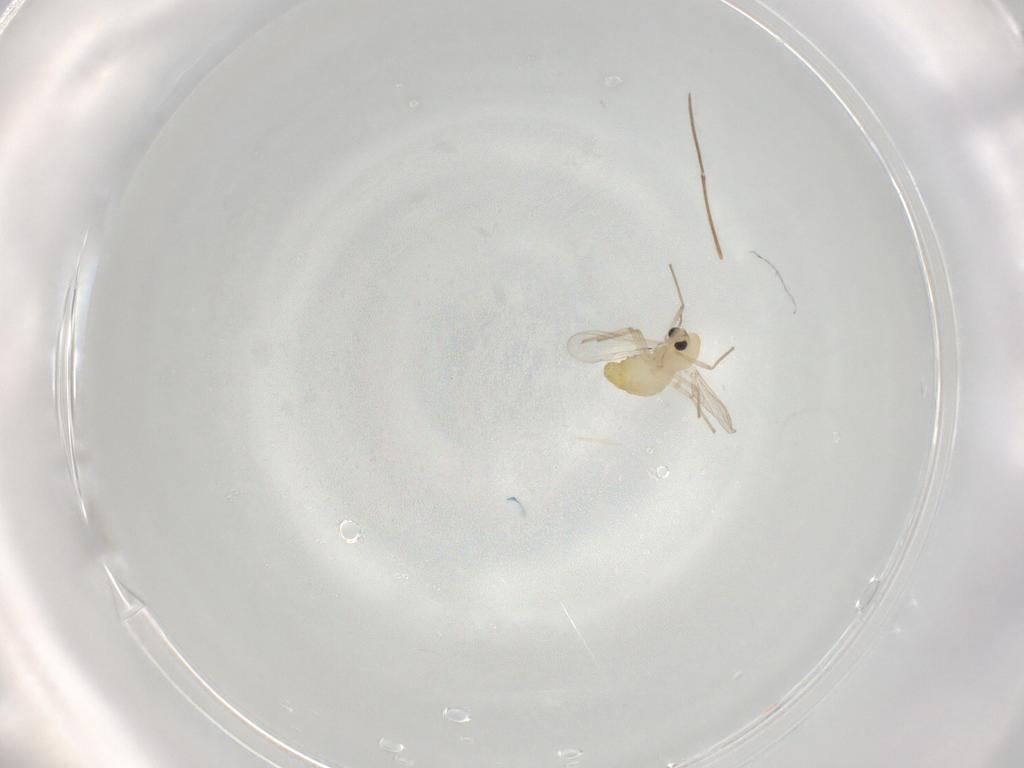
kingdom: Animalia
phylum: Arthropoda
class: Insecta
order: Diptera
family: Chironomidae
